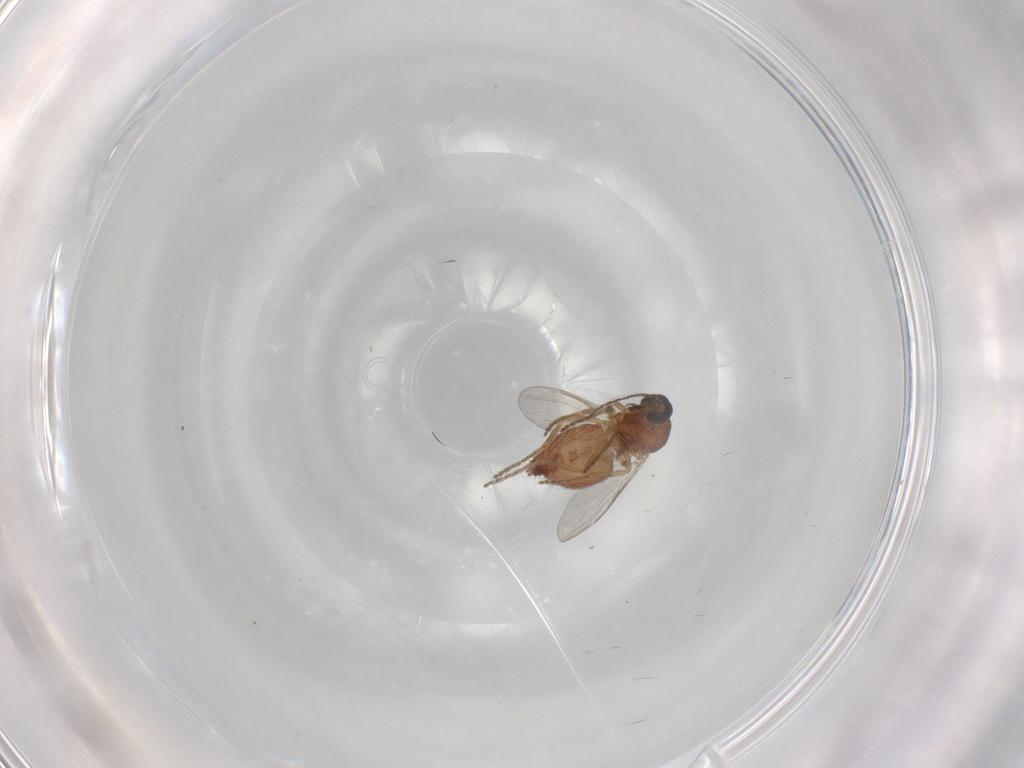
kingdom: Animalia
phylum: Arthropoda
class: Insecta
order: Diptera
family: Ceratopogonidae
